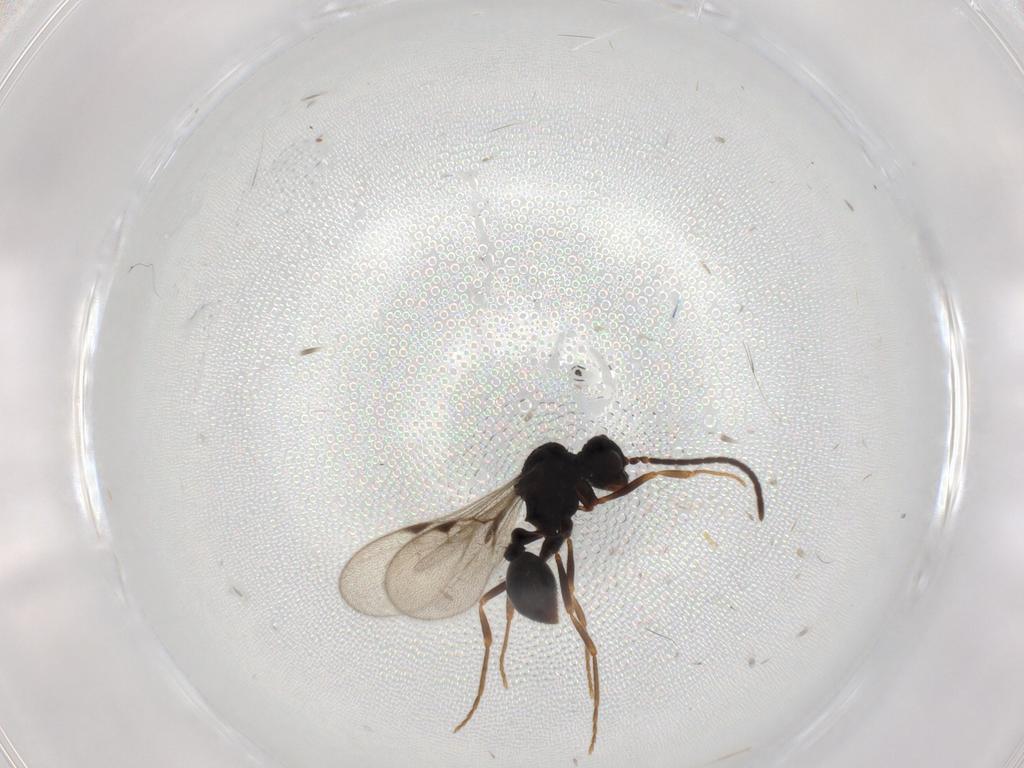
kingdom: Animalia
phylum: Arthropoda
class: Insecta
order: Hymenoptera
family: Formicidae
